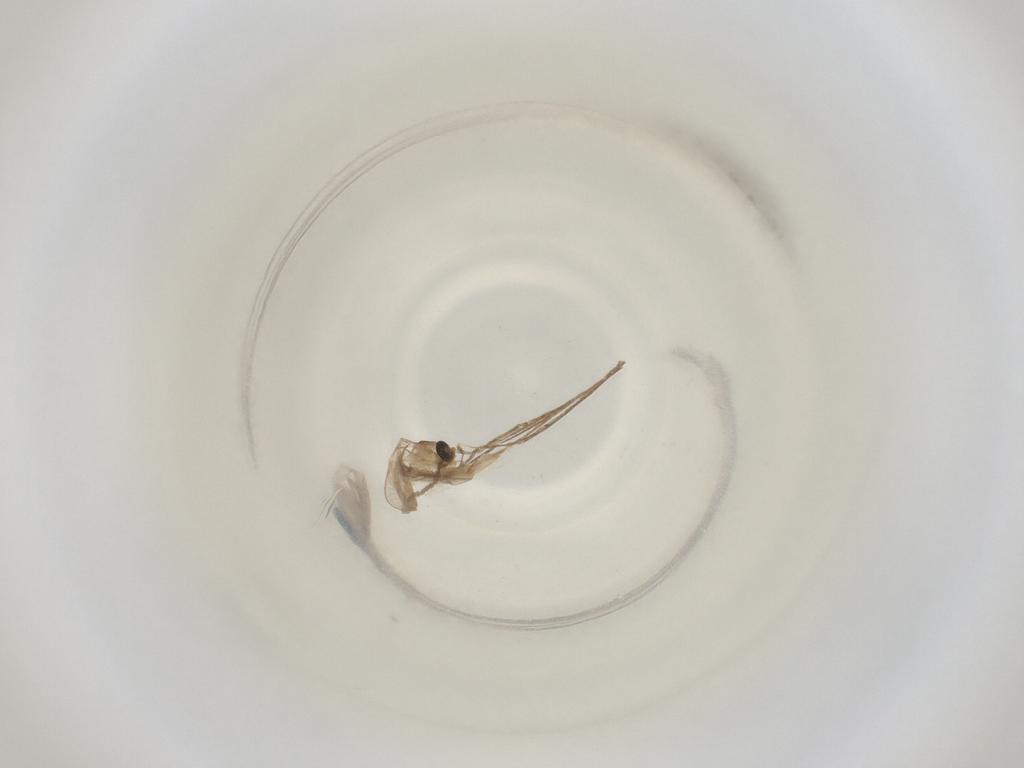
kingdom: Animalia
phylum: Arthropoda
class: Insecta
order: Diptera
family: Cecidomyiidae
